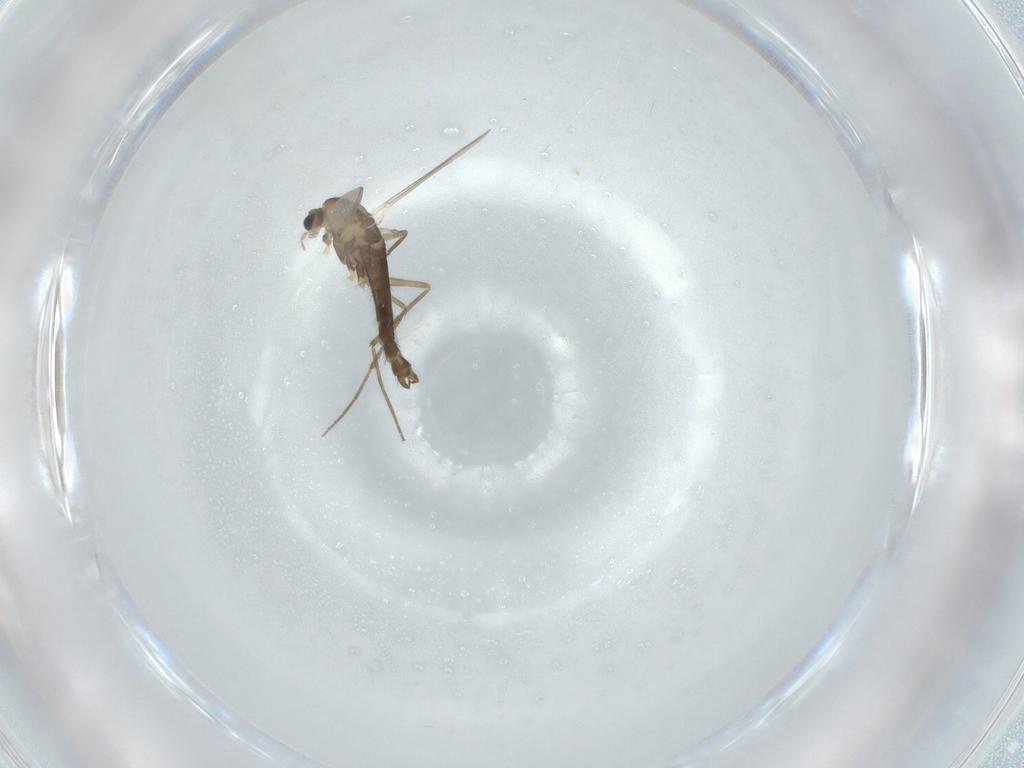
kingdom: Animalia
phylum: Arthropoda
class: Insecta
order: Diptera
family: Chironomidae
